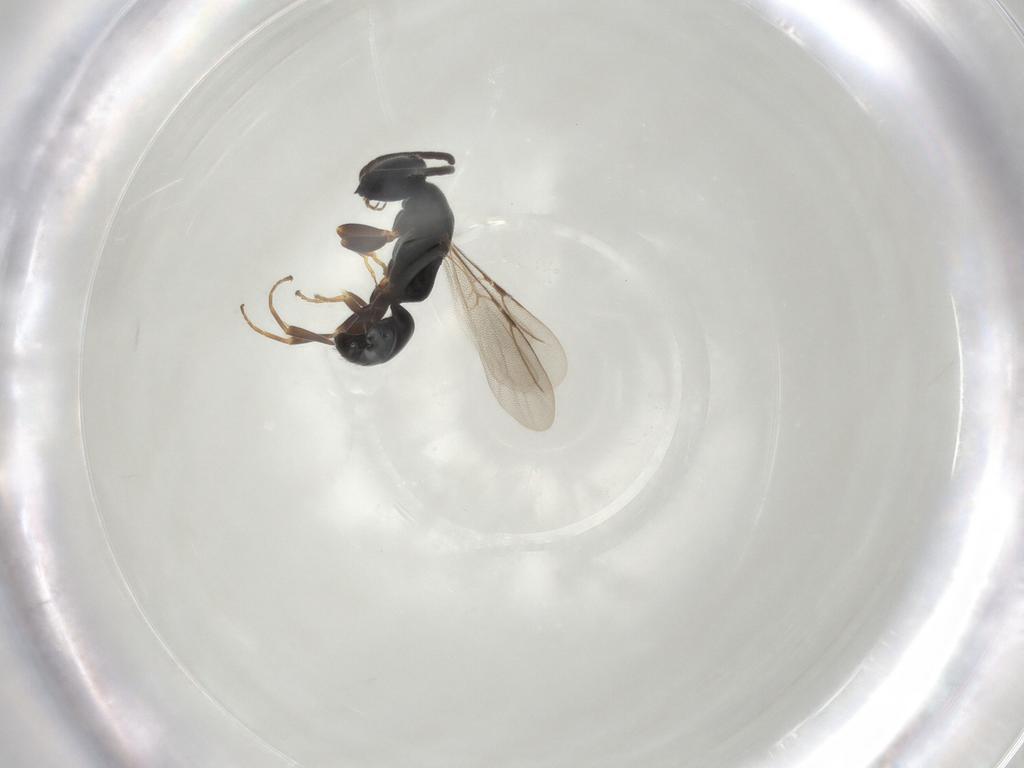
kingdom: Animalia
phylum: Arthropoda
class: Insecta
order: Hymenoptera
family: Bethylidae
